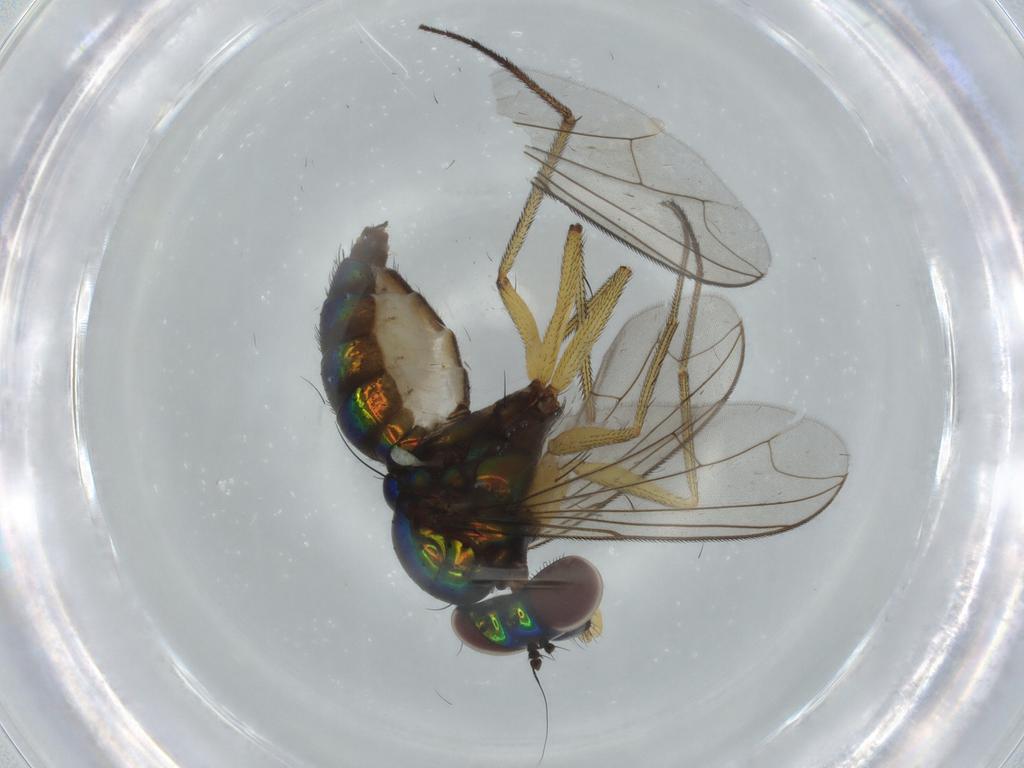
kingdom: Animalia
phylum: Arthropoda
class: Insecta
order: Diptera
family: Dolichopodidae
